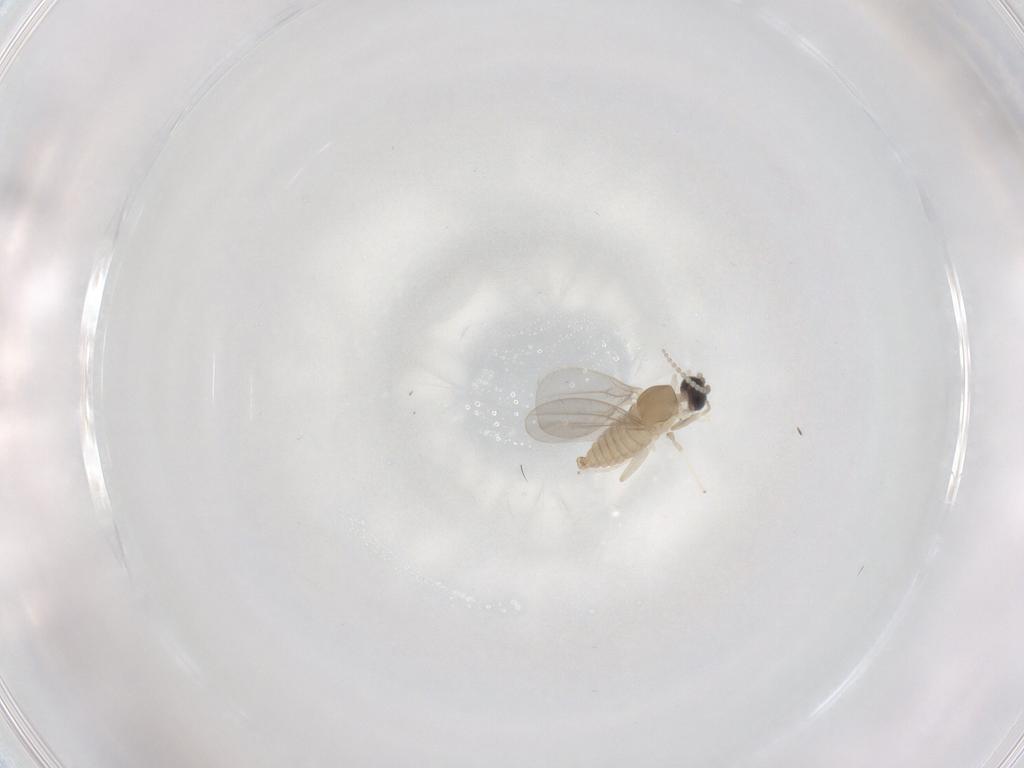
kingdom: Animalia
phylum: Arthropoda
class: Insecta
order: Diptera
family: Cecidomyiidae
